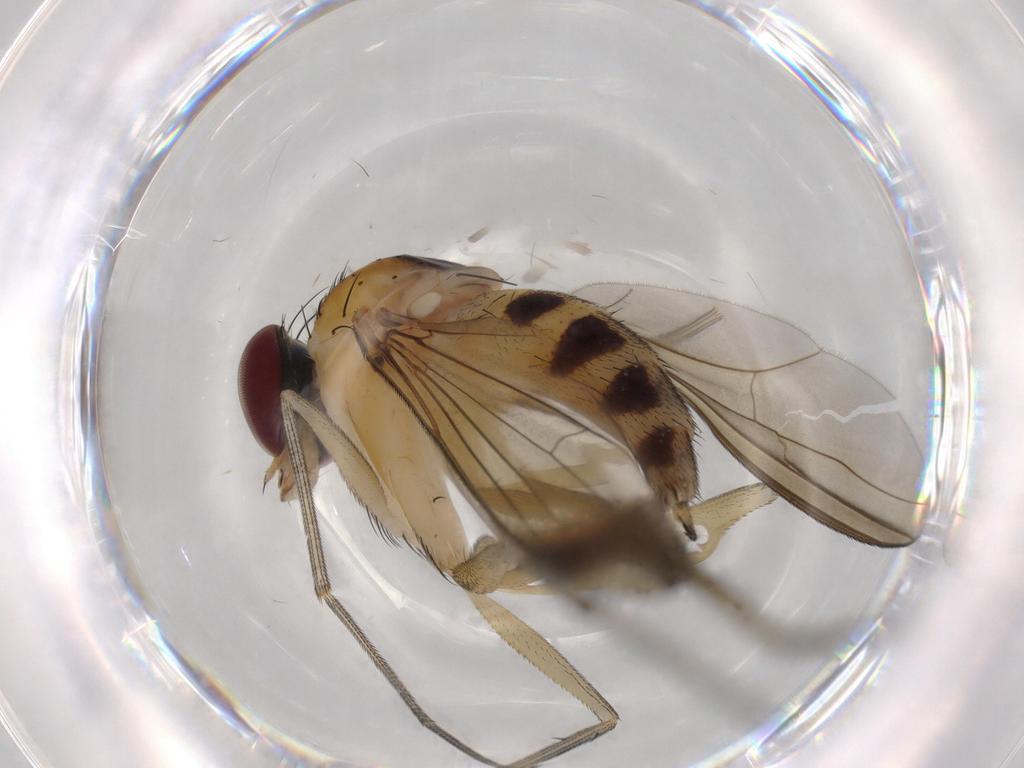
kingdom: Animalia
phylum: Arthropoda
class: Insecta
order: Diptera
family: Dolichopodidae
